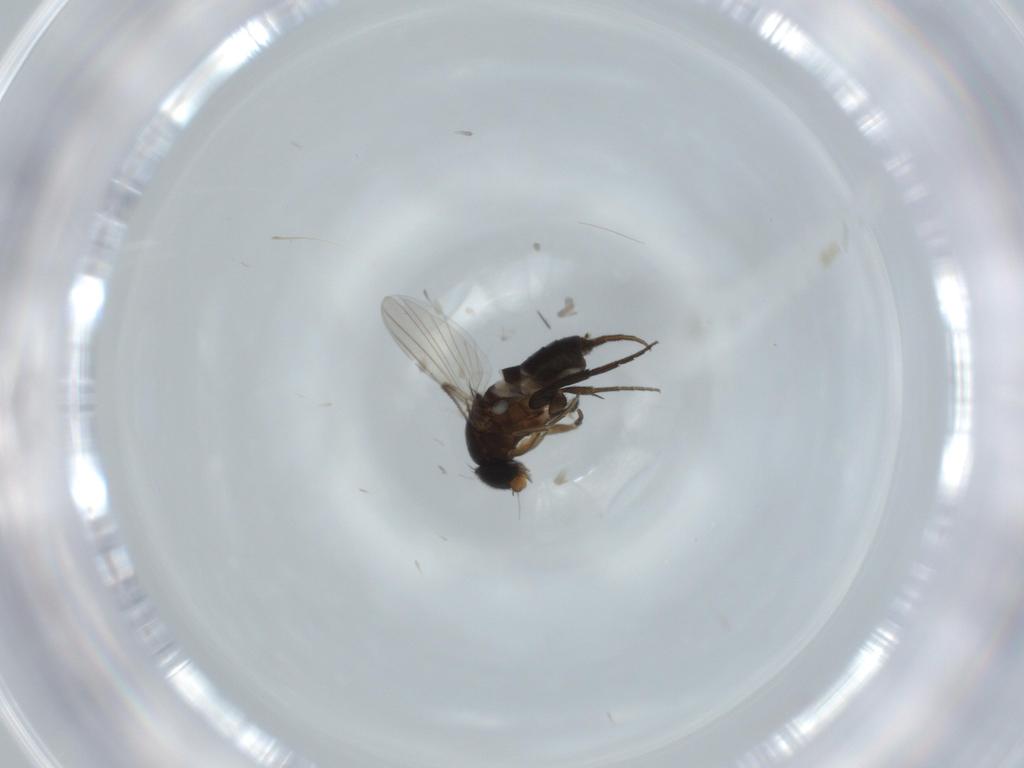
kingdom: Animalia
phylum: Arthropoda
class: Insecta
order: Diptera
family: Phoridae
